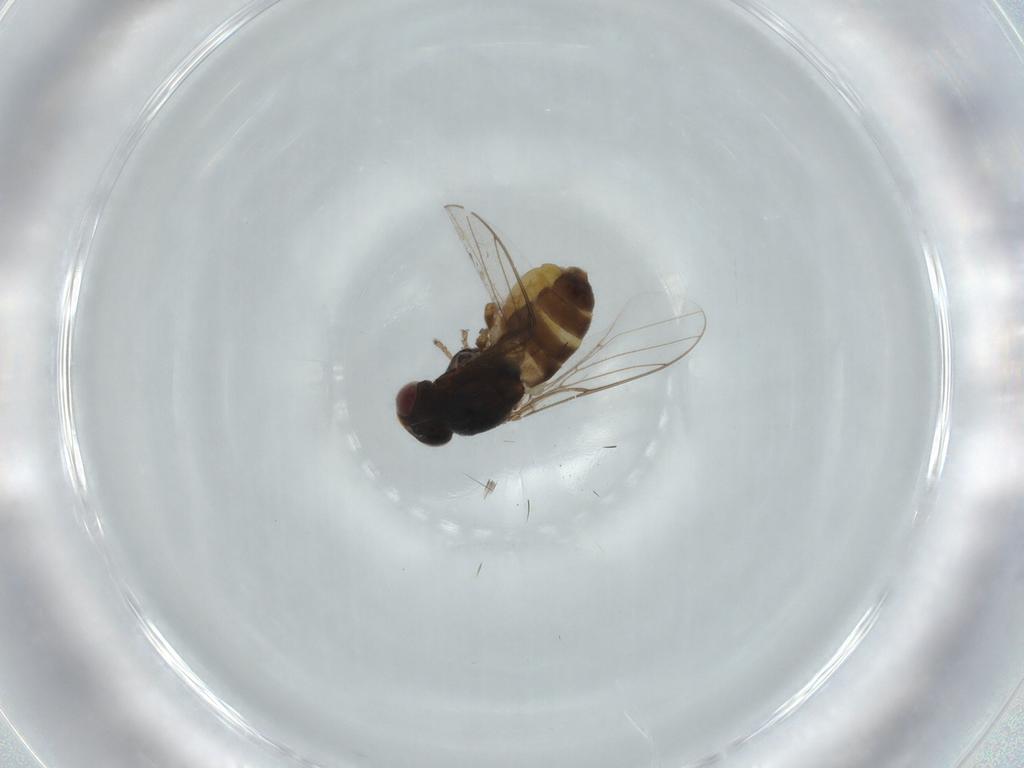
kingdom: Animalia
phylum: Arthropoda
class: Insecta
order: Diptera
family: Chloropidae
